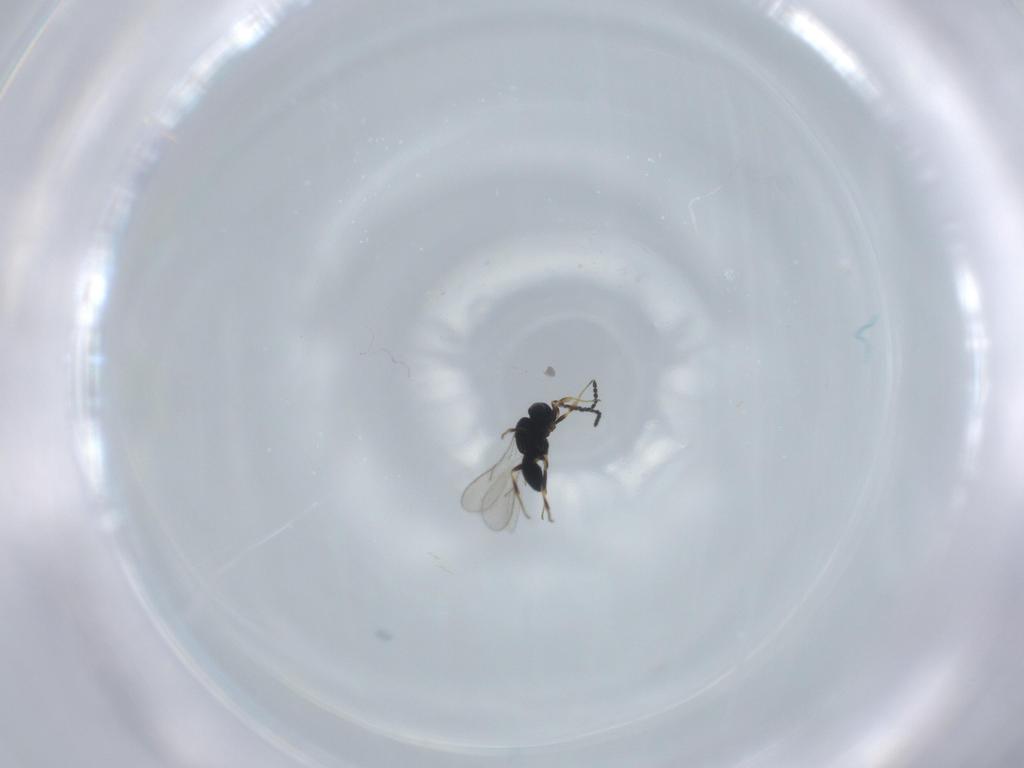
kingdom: Animalia
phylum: Arthropoda
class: Insecta
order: Hymenoptera
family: Scelionidae
